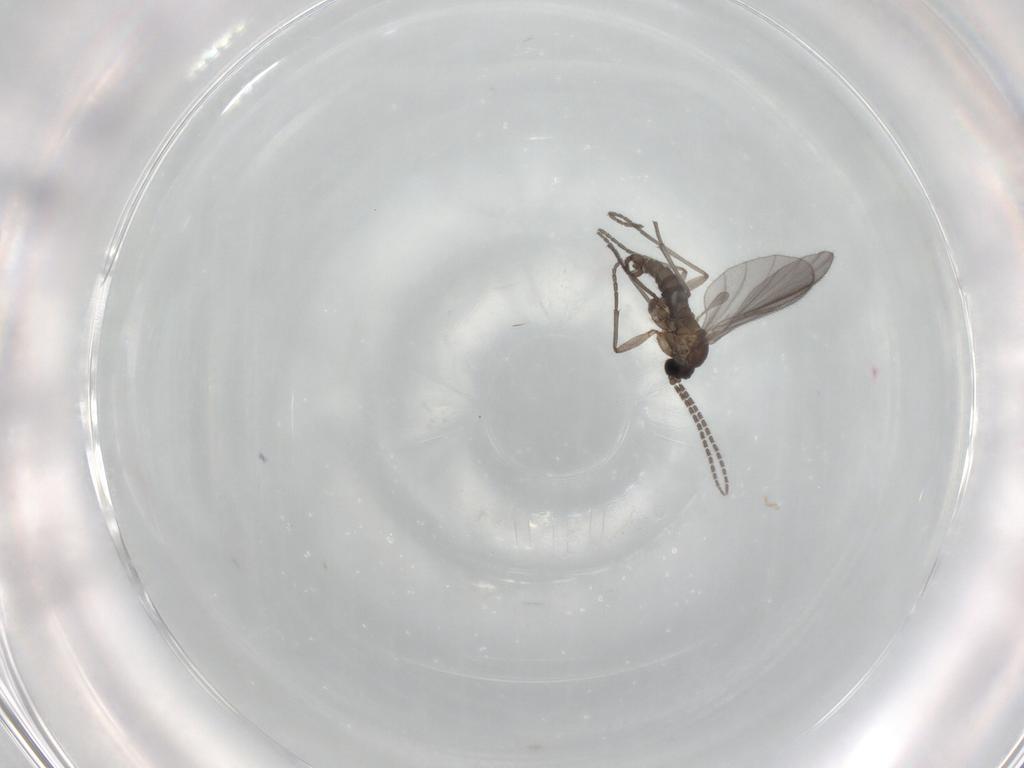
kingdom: Animalia
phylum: Arthropoda
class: Insecta
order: Diptera
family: Sciaridae
